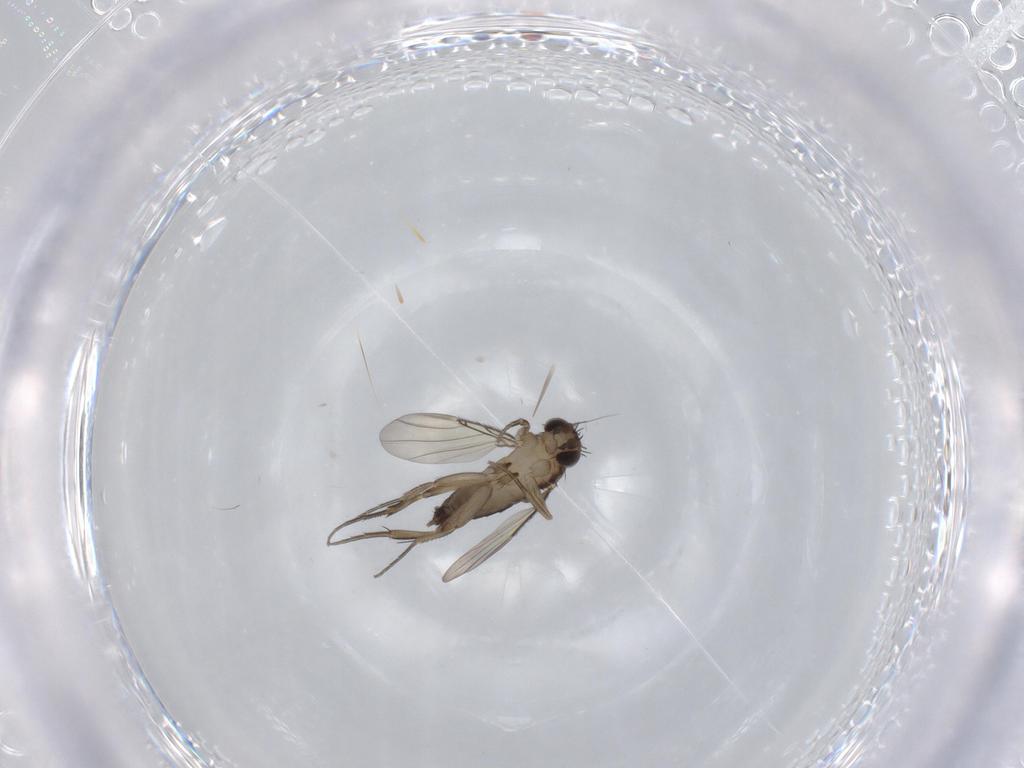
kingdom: Animalia
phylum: Arthropoda
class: Insecta
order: Diptera
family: Phoridae
